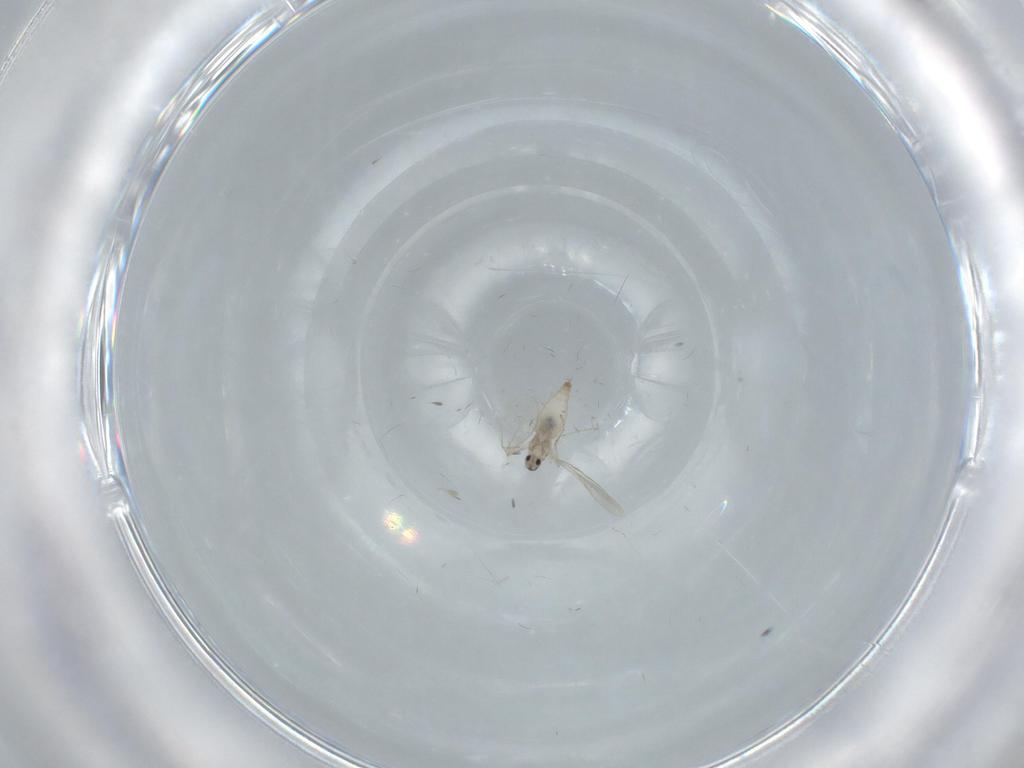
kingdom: Animalia
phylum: Arthropoda
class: Insecta
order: Diptera
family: Sciaridae
